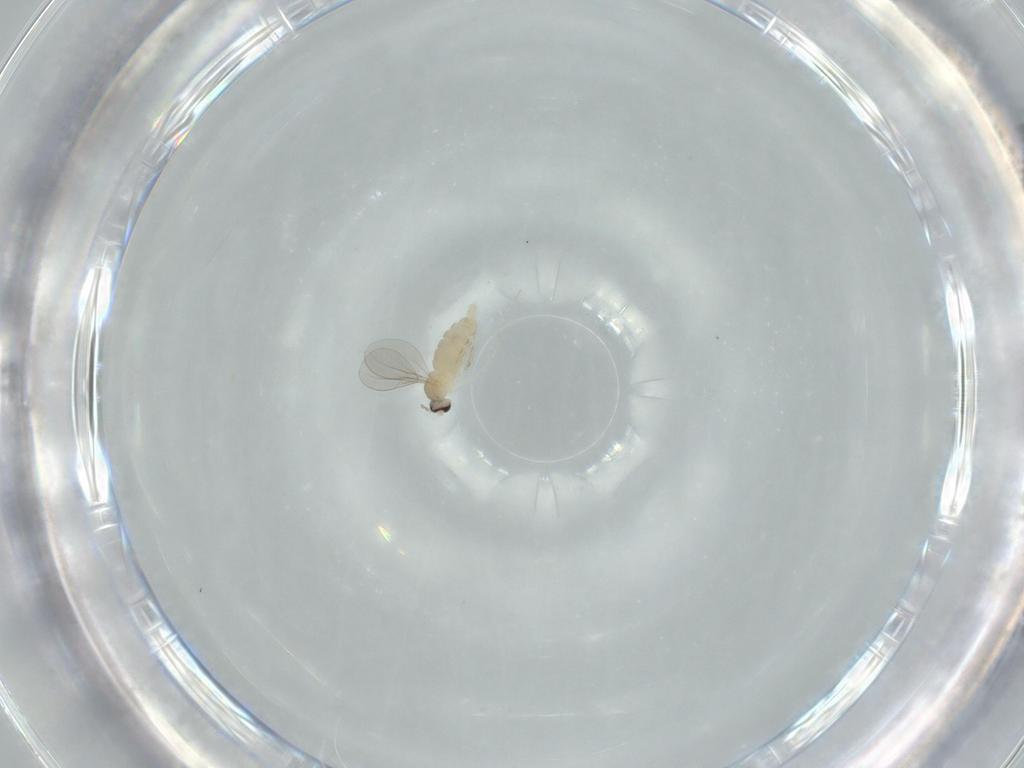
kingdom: Animalia
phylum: Arthropoda
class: Insecta
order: Diptera
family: Cecidomyiidae
